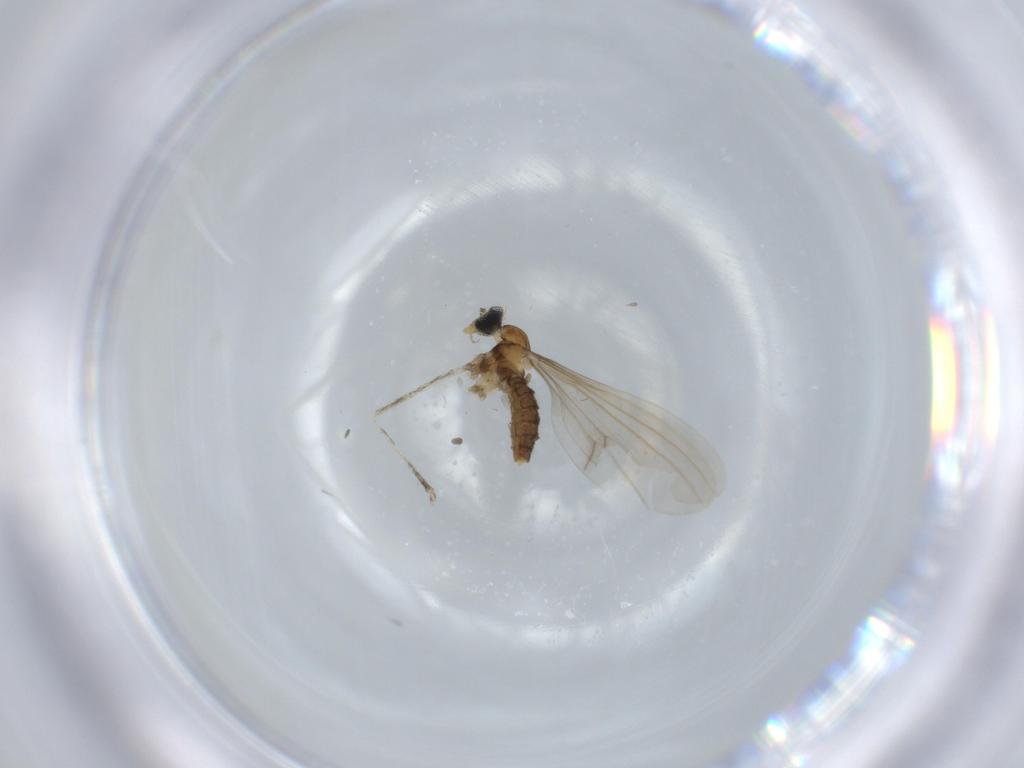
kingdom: Animalia
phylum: Arthropoda
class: Insecta
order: Diptera
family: Cecidomyiidae
